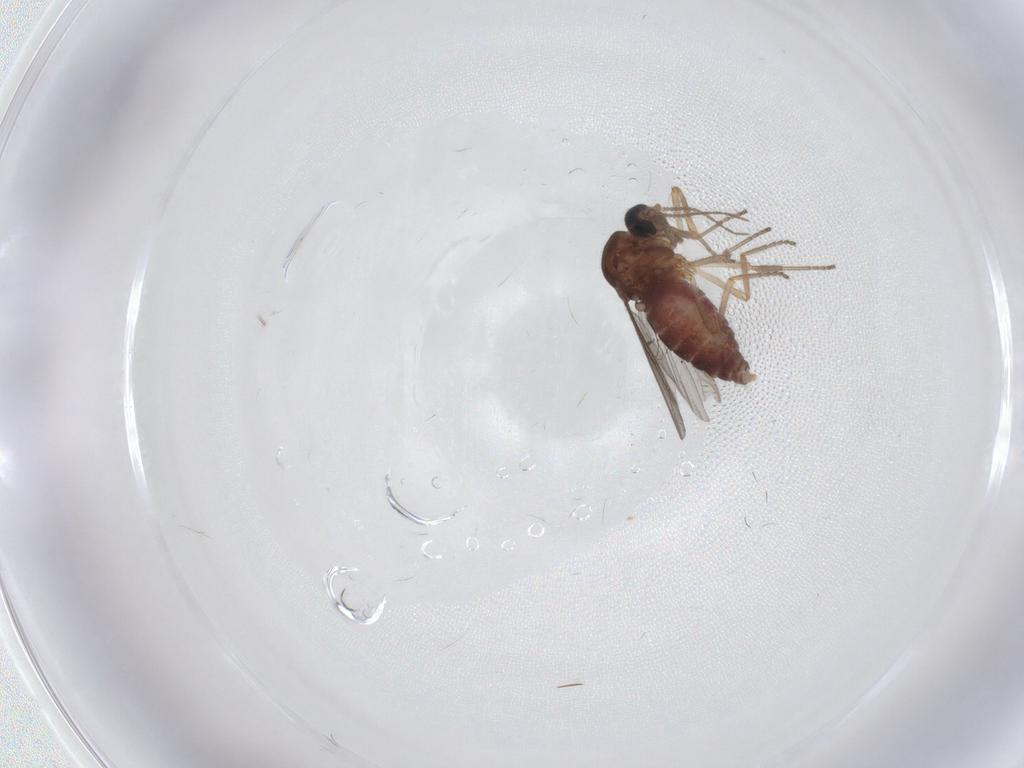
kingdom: Animalia
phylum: Arthropoda
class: Insecta
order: Diptera
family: Ceratopogonidae
